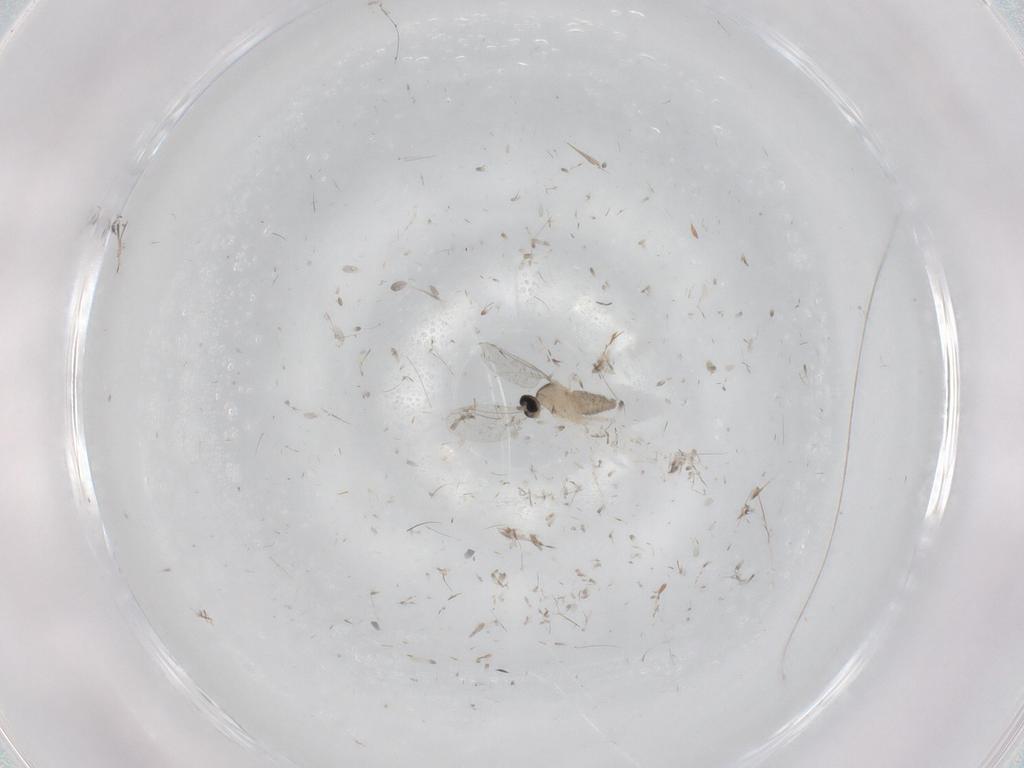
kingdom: Animalia
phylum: Arthropoda
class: Insecta
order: Diptera
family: Cecidomyiidae
